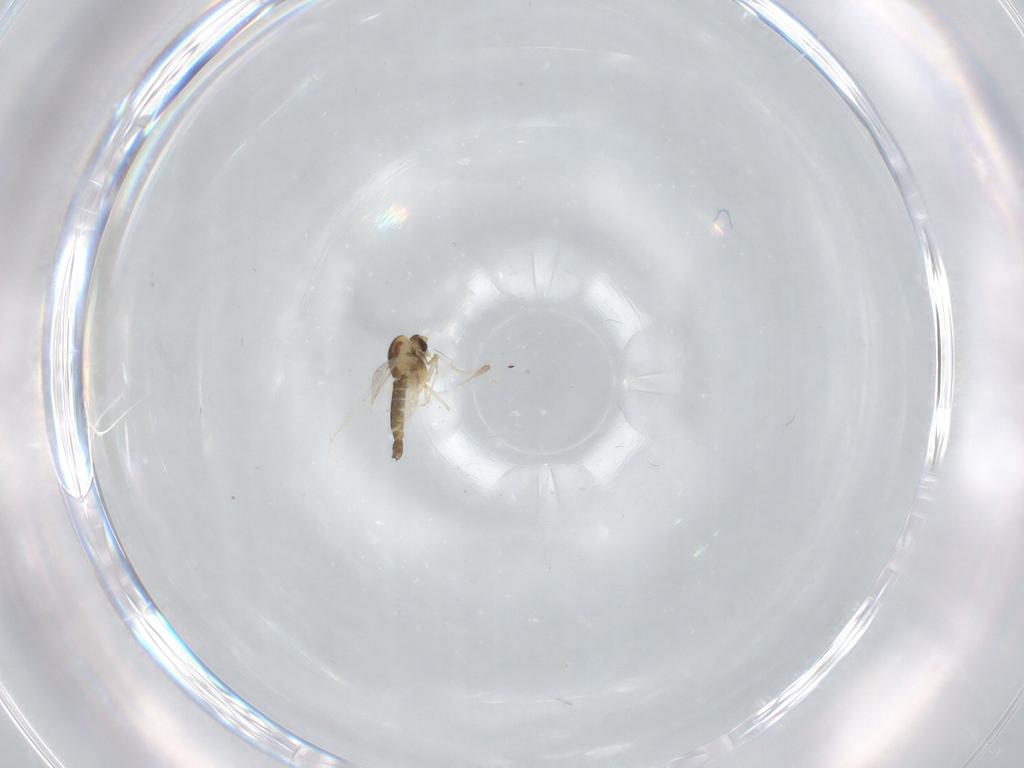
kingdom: Animalia
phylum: Arthropoda
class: Insecta
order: Diptera
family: Chironomidae
